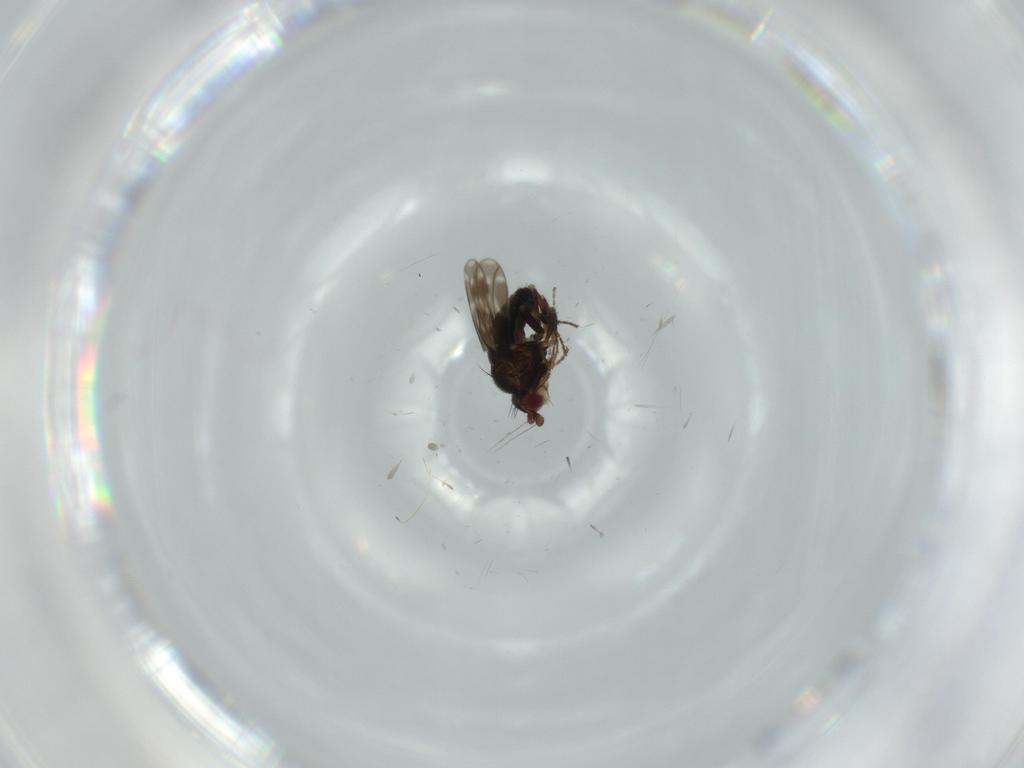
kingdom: Animalia
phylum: Arthropoda
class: Insecta
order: Diptera
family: Sphaeroceridae
